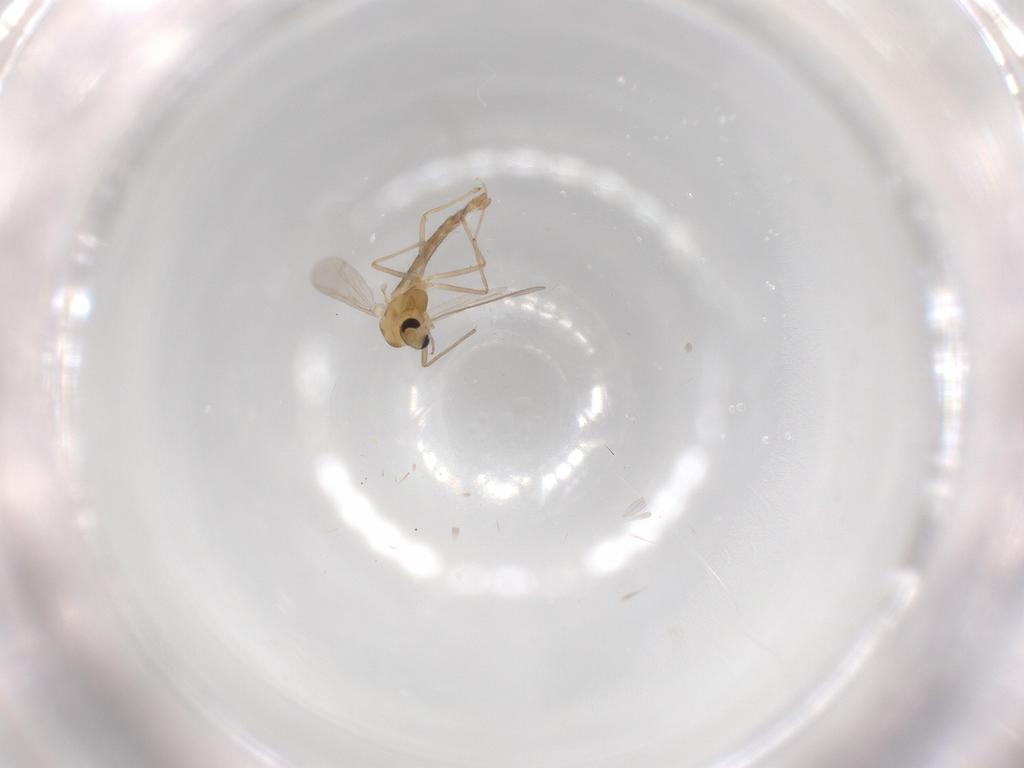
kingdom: Animalia
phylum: Arthropoda
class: Insecta
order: Diptera
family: Chironomidae
